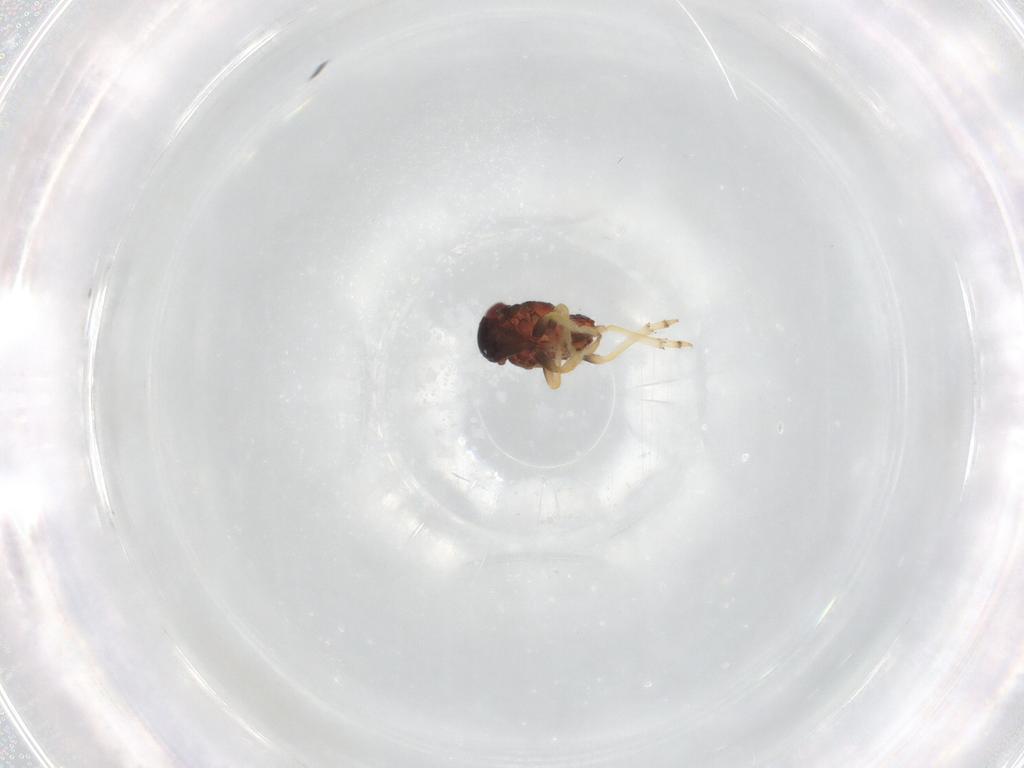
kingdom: Animalia
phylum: Arthropoda
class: Insecta
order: Hemiptera
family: Fulgoroidea_incertae_sedis
